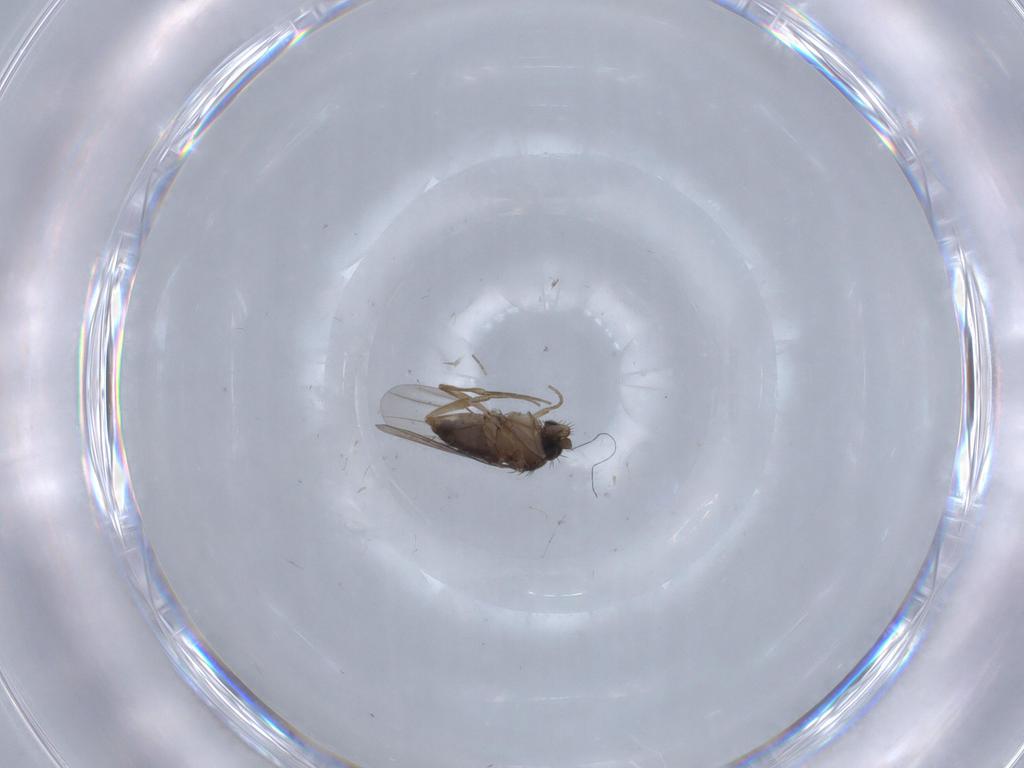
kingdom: Animalia
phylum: Arthropoda
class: Insecta
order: Diptera
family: Phoridae
